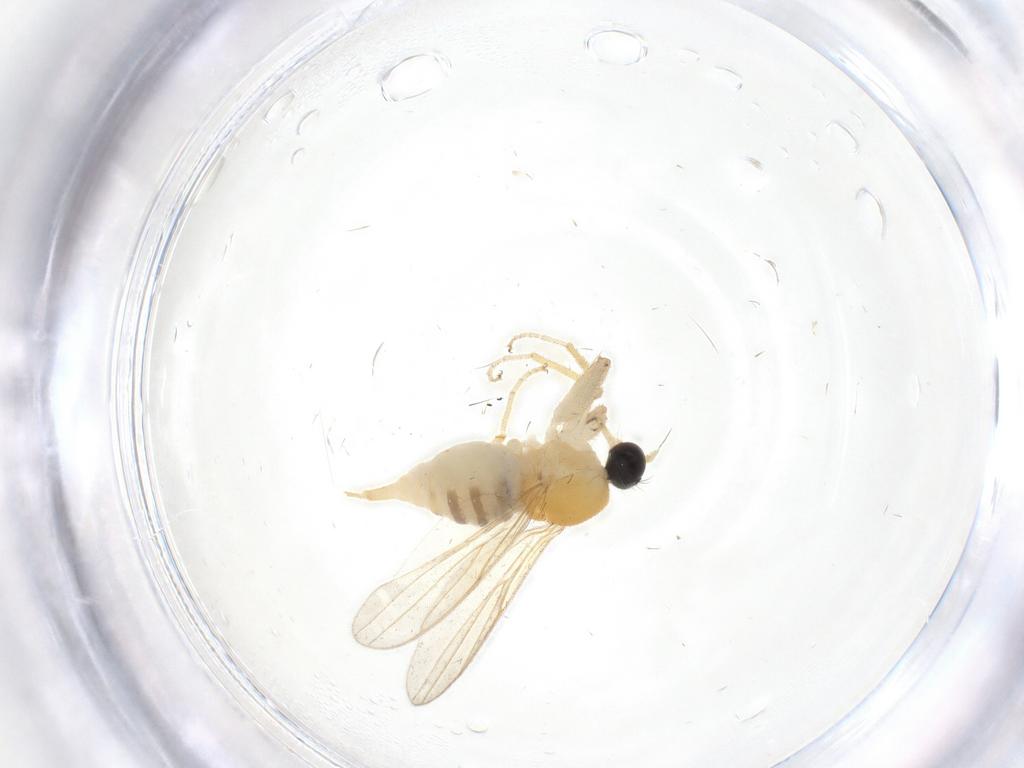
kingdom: Animalia
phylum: Arthropoda
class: Insecta
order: Diptera
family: Chironomidae
